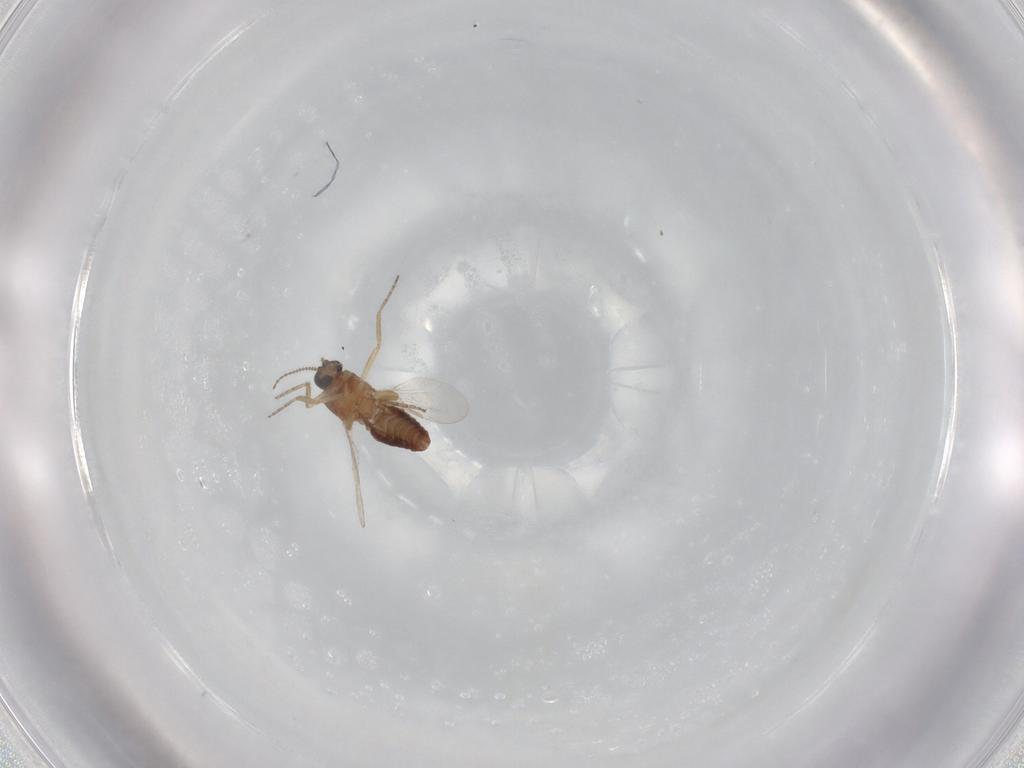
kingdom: Animalia
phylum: Arthropoda
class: Insecta
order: Diptera
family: Ceratopogonidae
